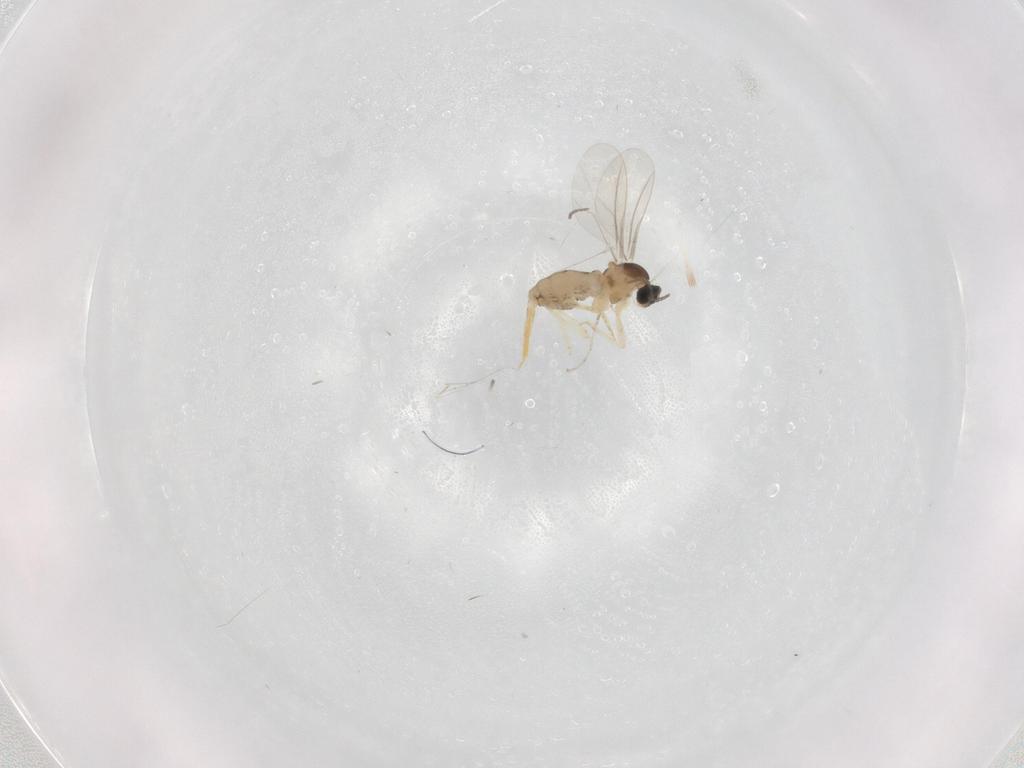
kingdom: Animalia
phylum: Arthropoda
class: Insecta
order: Diptera
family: Cecidomyiidae
